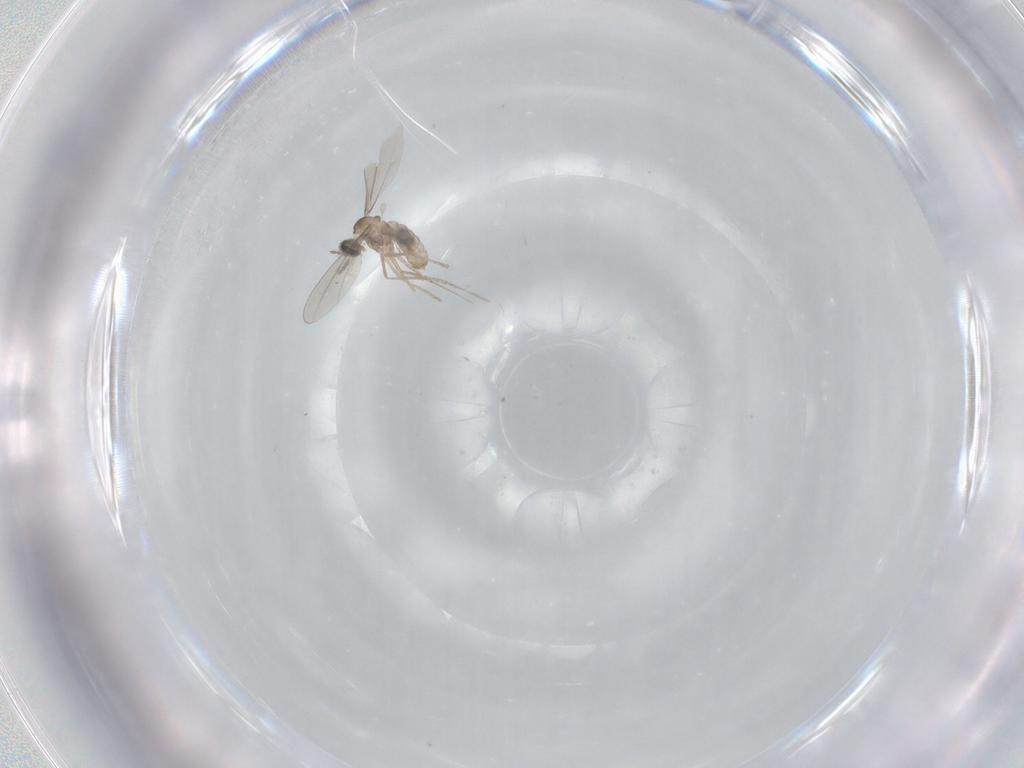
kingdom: Animalia
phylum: Arthropoda
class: Insecta
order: Diptera
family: Cecidomyiidae
